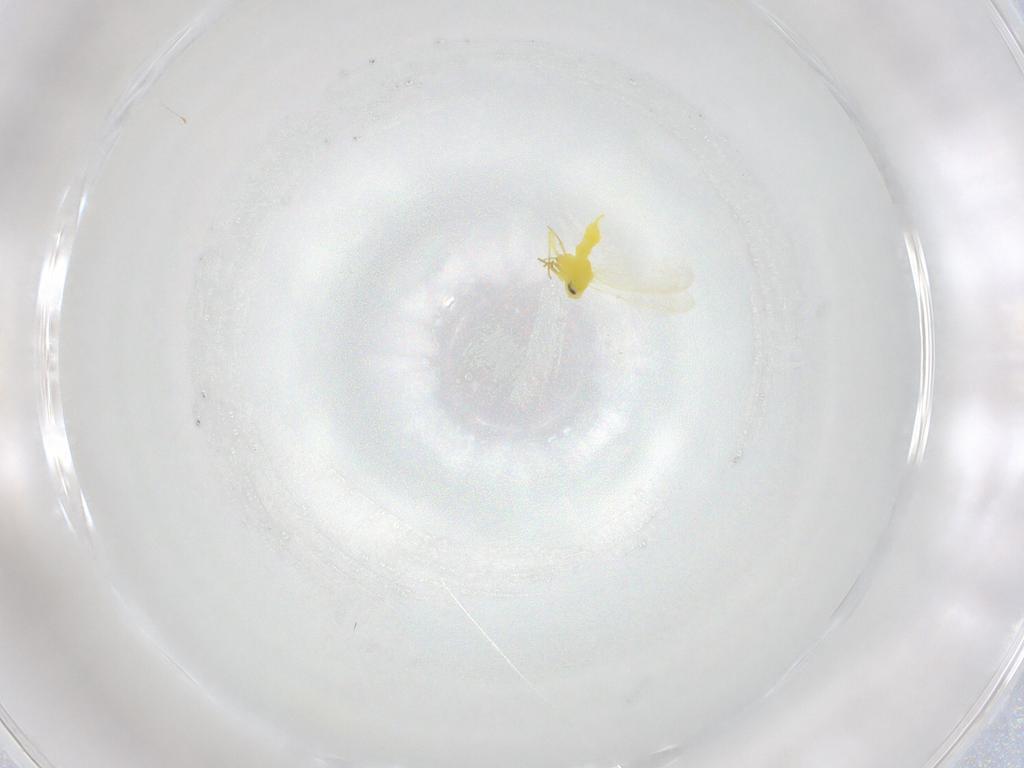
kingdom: Animalia
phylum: Arthropoda
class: Insecta
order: Hemiptera
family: Aleyrodidae
